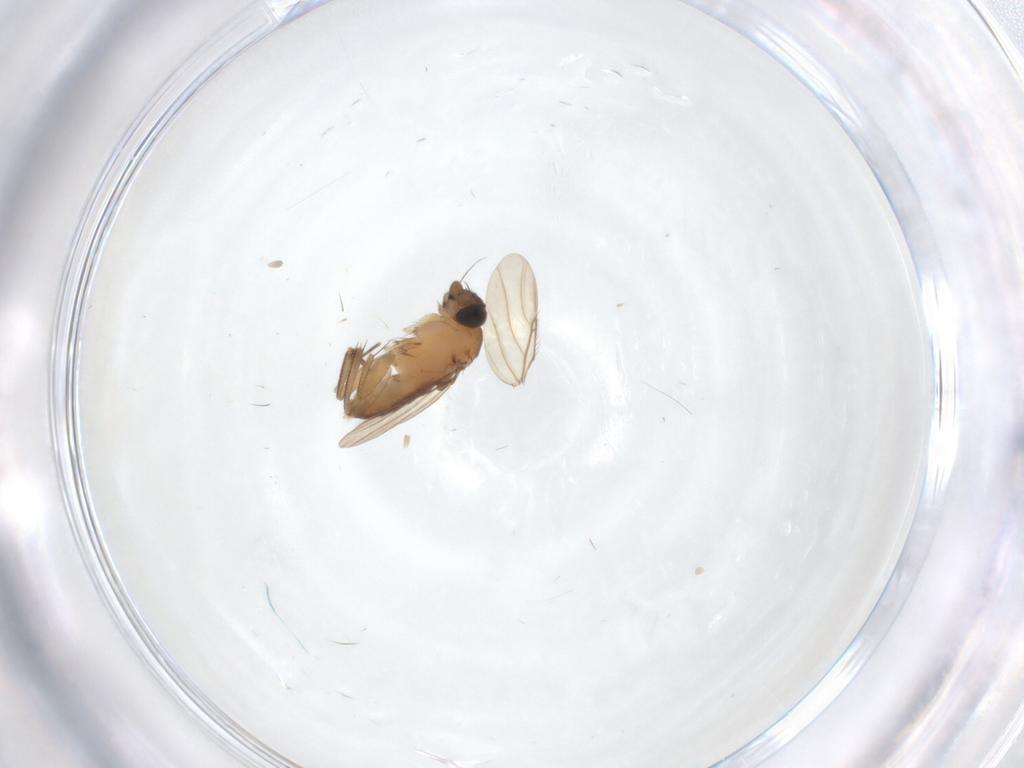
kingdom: Animalia
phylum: Arthropoda
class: Insecta
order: Diptera
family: Phoridae
